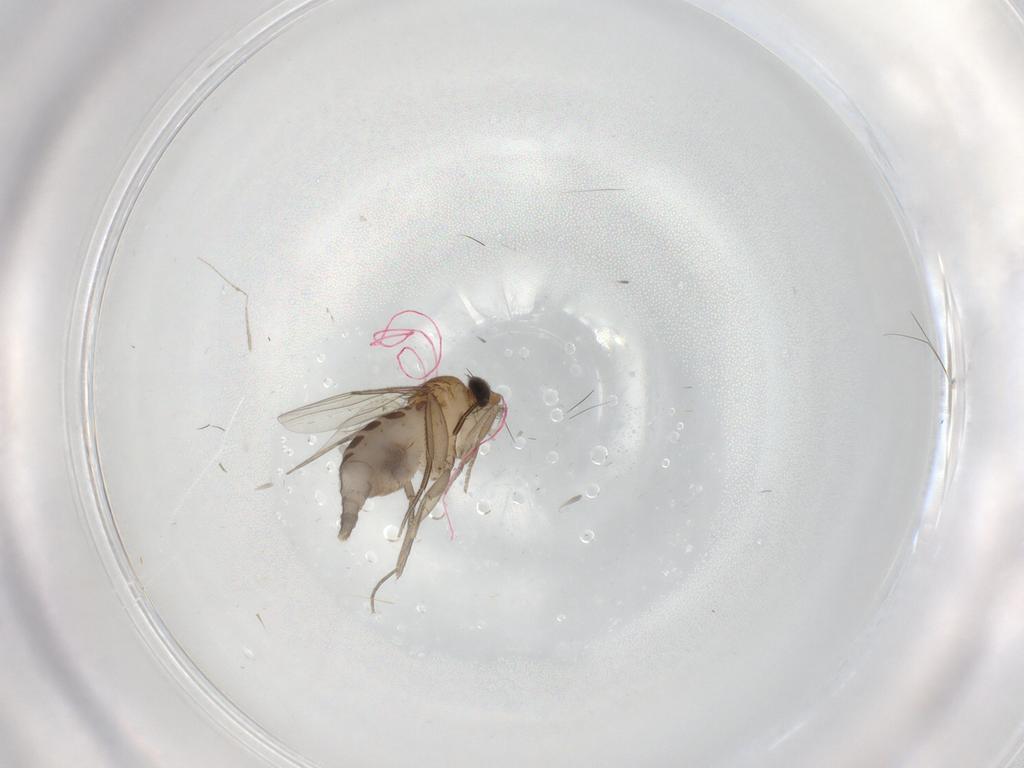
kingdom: Animalia
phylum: Arthropoda
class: Insecta
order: Diptera
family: Phoridae
